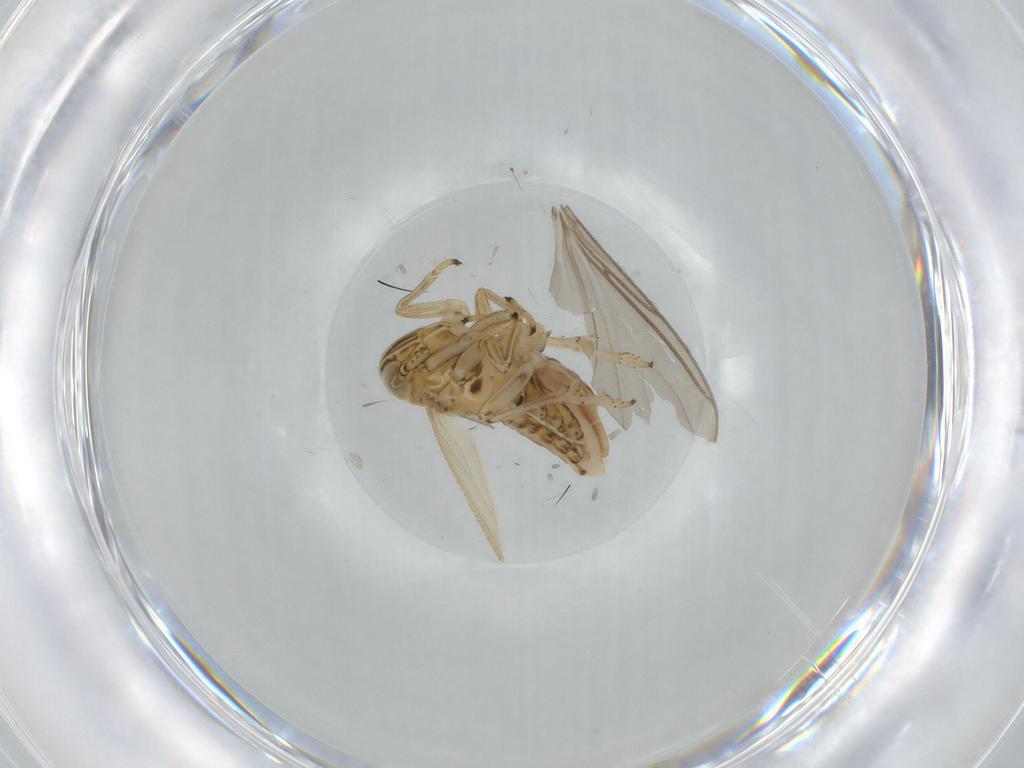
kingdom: Animalia
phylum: Arthropoda
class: Insecta
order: Hemiptera
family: Delphacidae
